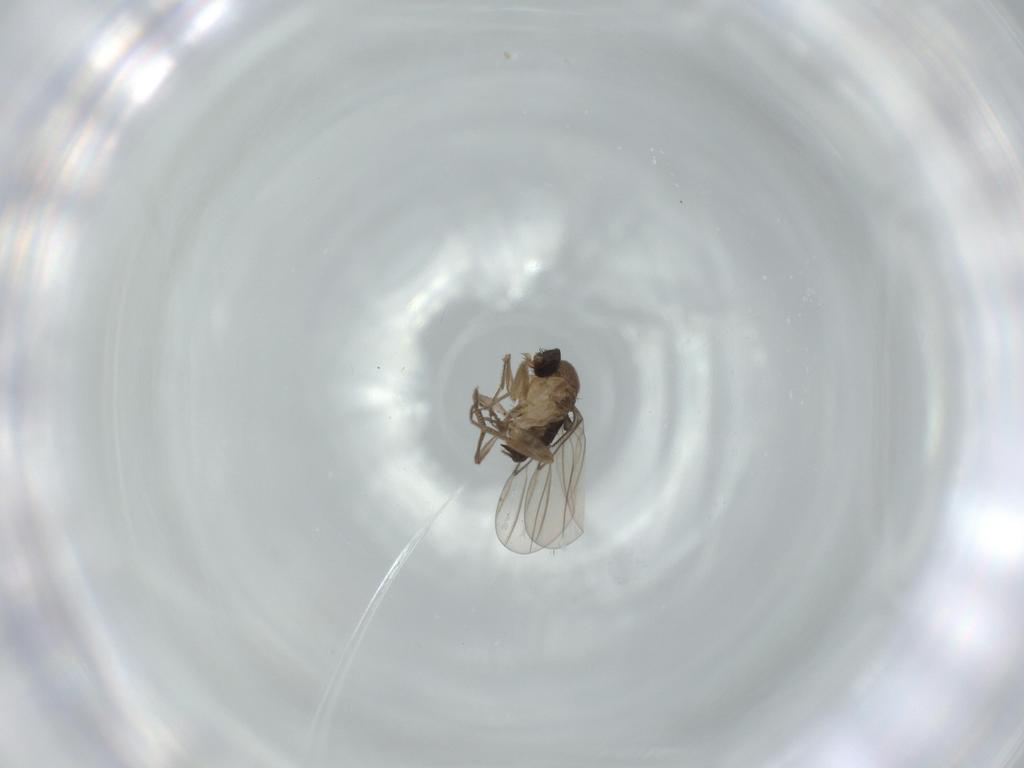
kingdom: Animalia
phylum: Arthropoda
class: Insecta
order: Diptera
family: Phoridae
